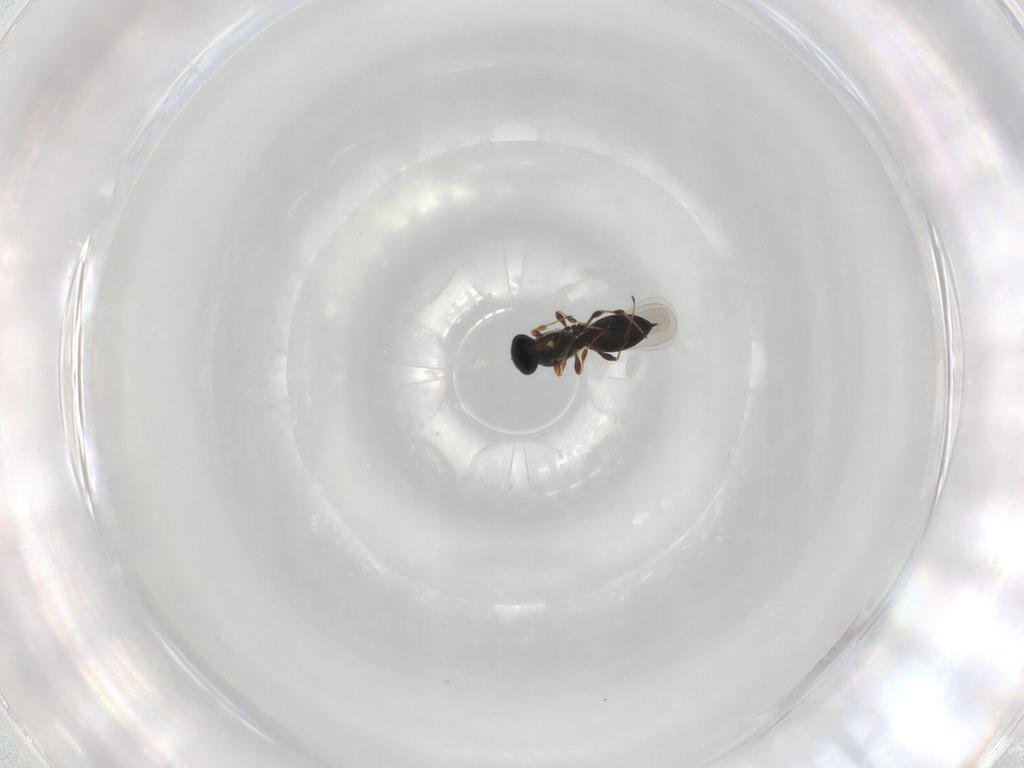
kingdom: Animalia
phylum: Arthropoda
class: Insecta
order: Hymenoptera
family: Platygastridae
